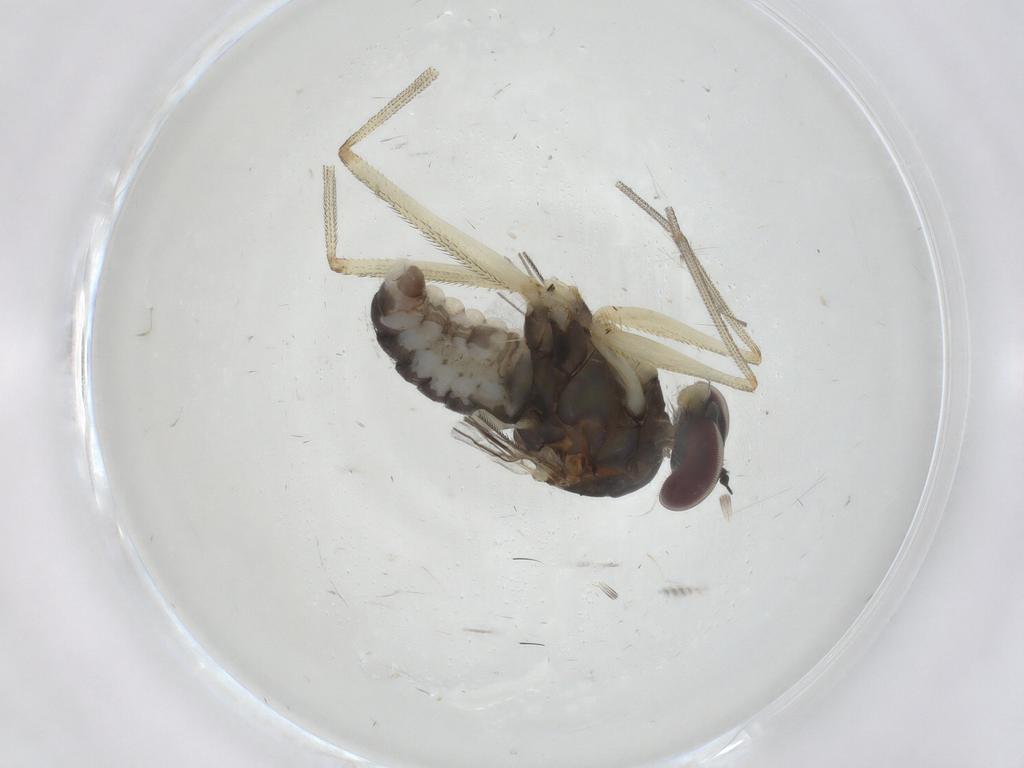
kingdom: Animalia
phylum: Arthropoda
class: Insecta
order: Diptera
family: Dolichopodidae
